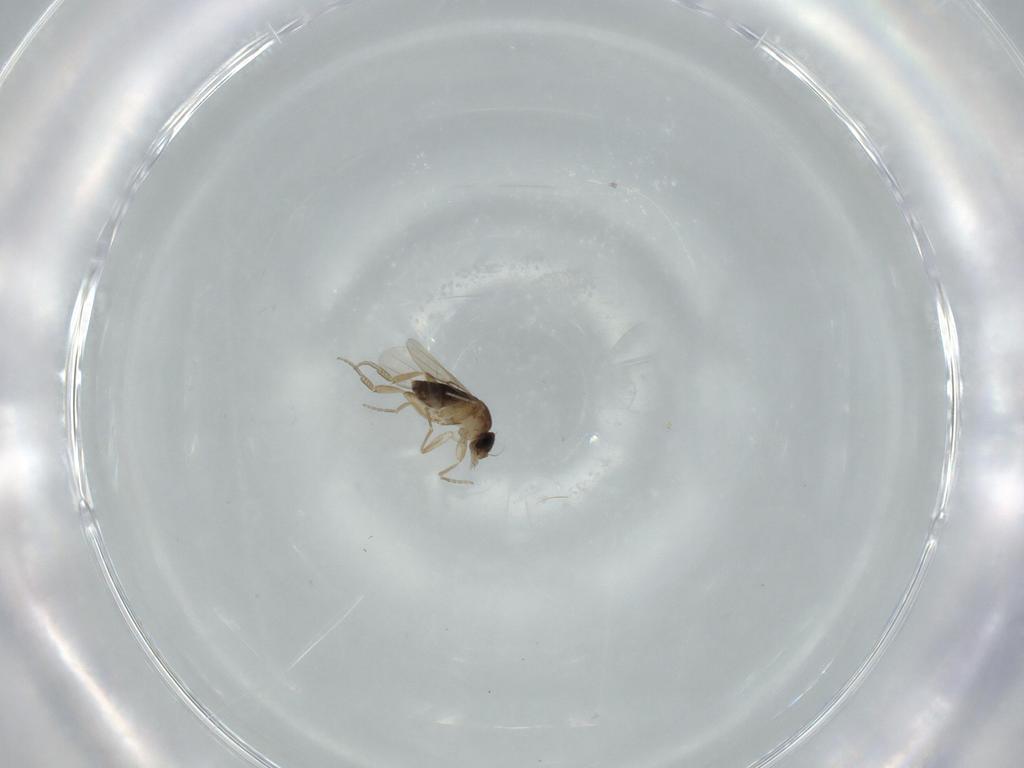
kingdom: Animalia
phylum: Arthropoda
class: Insecta
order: Diptera
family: Phoridae
